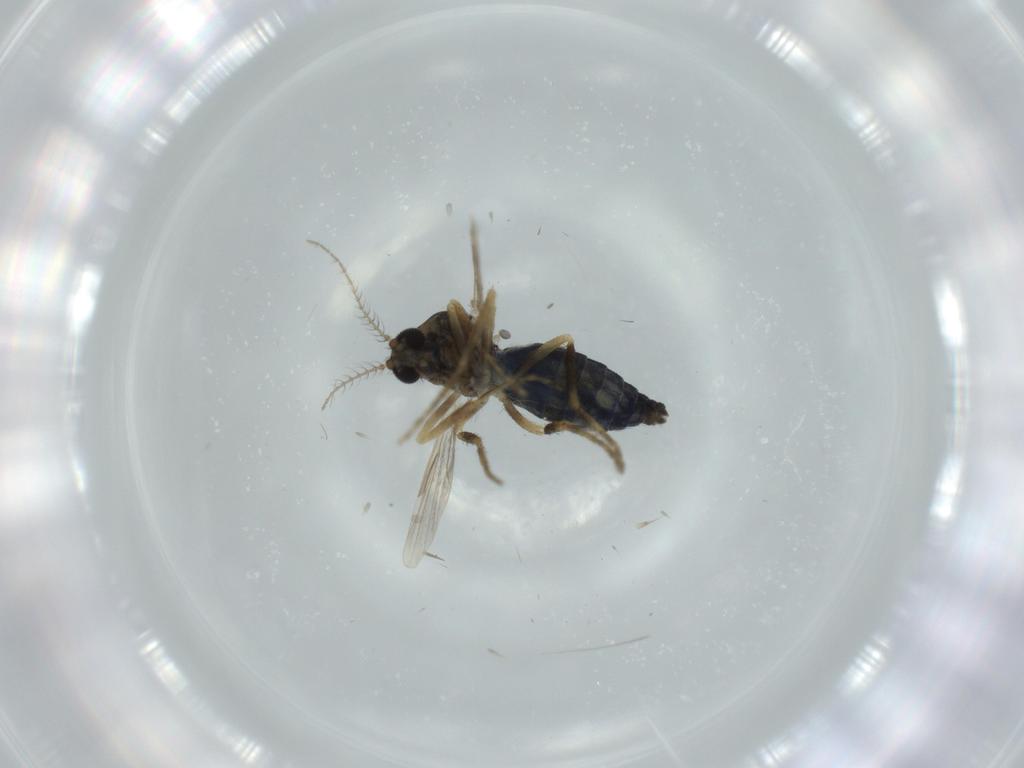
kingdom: Animalia
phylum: Arthropoda
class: Insecta
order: Diptera
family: Ceratopogonidae
